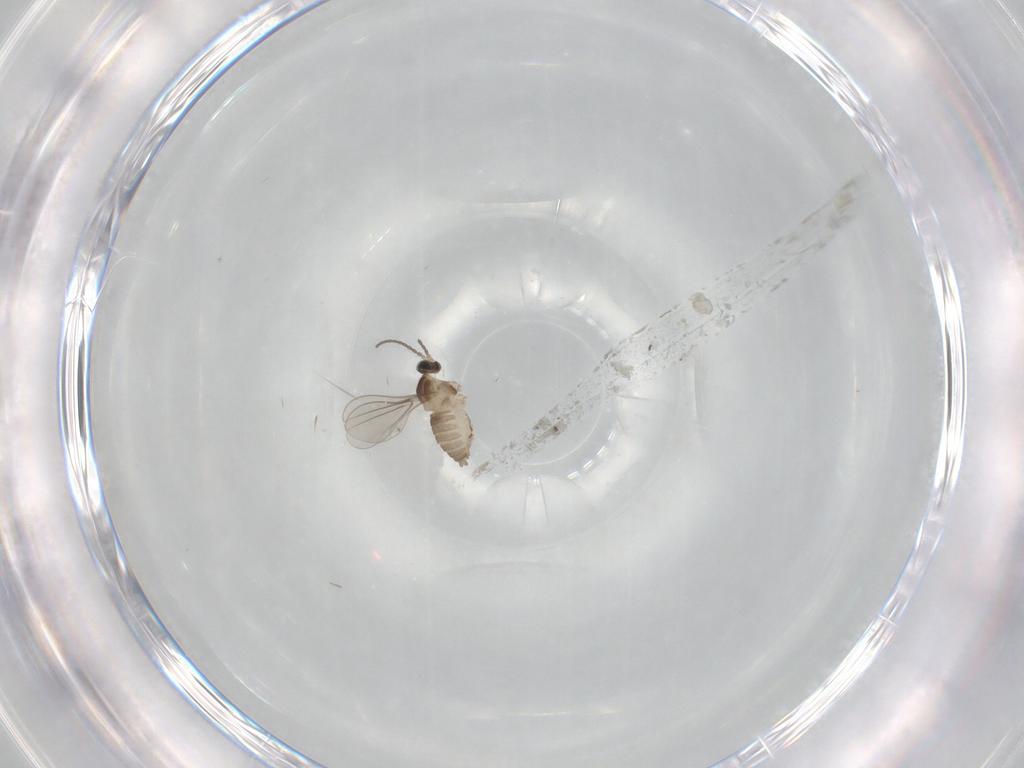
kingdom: Animalia
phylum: Arthropoda
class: Insecta
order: Diptera
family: Cecidomyiidae
